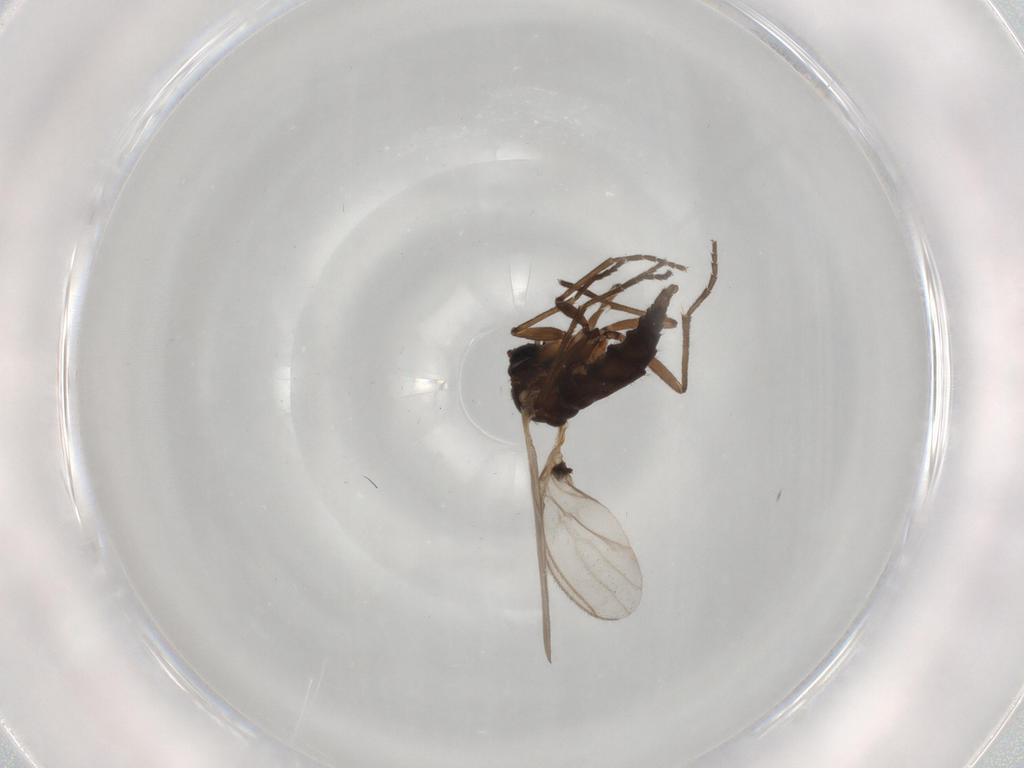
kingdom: Animalia
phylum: Arthropoda
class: Insecta
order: Diptera
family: Sciaridae
